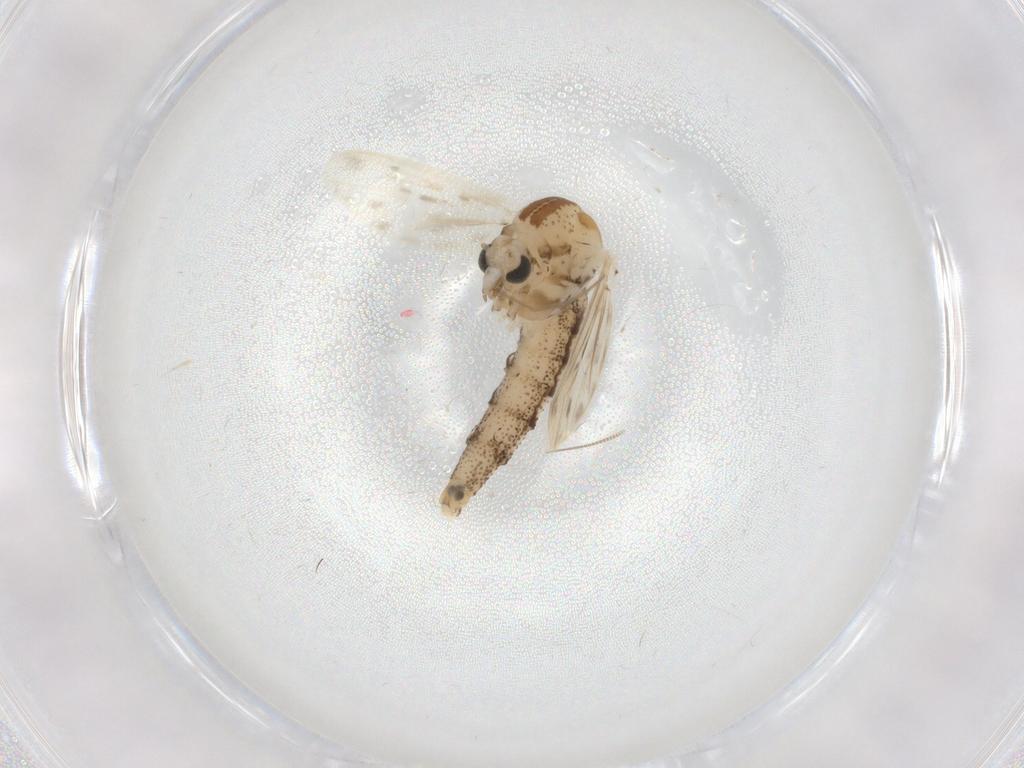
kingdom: Animalia
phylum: Arthropoda
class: Insecta
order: Diptera
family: Chaoboridae
